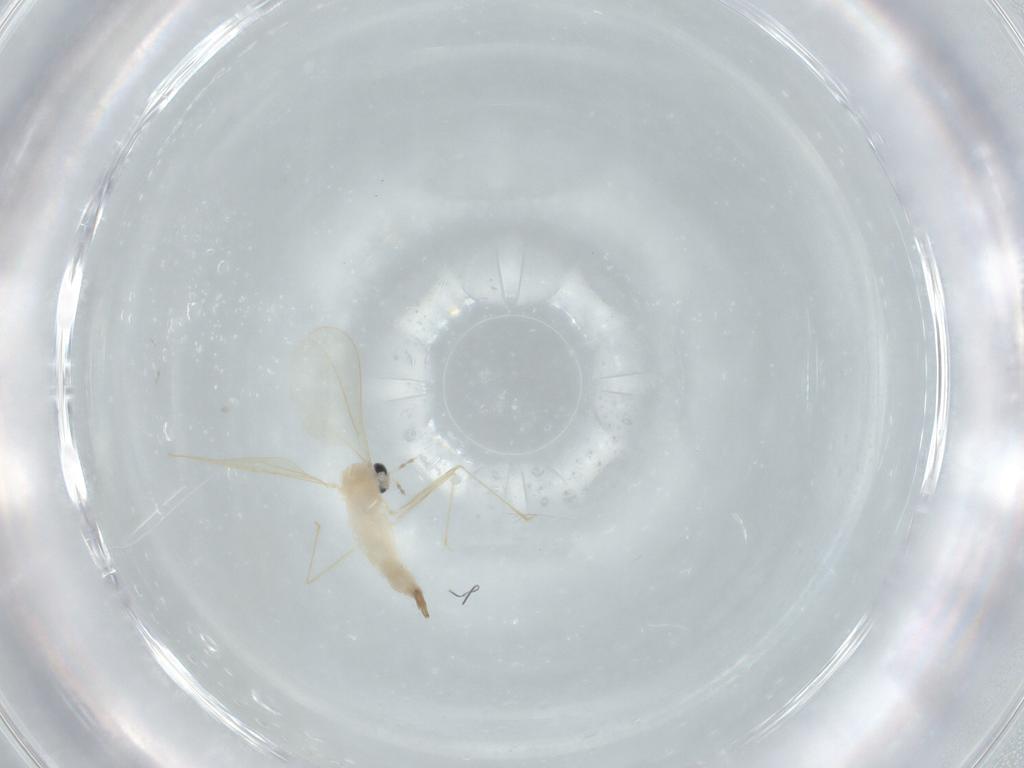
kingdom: Animalia
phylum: Arthropoda
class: Insecta
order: Diptera
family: Cecidomyiidae
